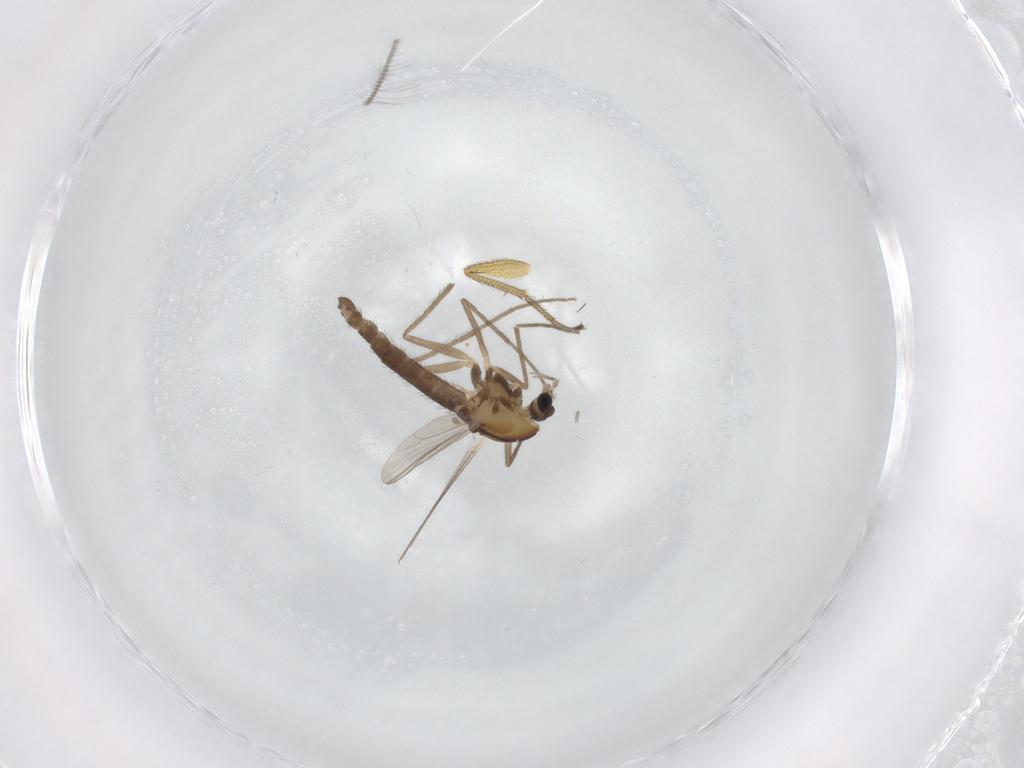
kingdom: Animalia
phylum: Arthropoda
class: Insecta
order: Diptera
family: Chironomidae
